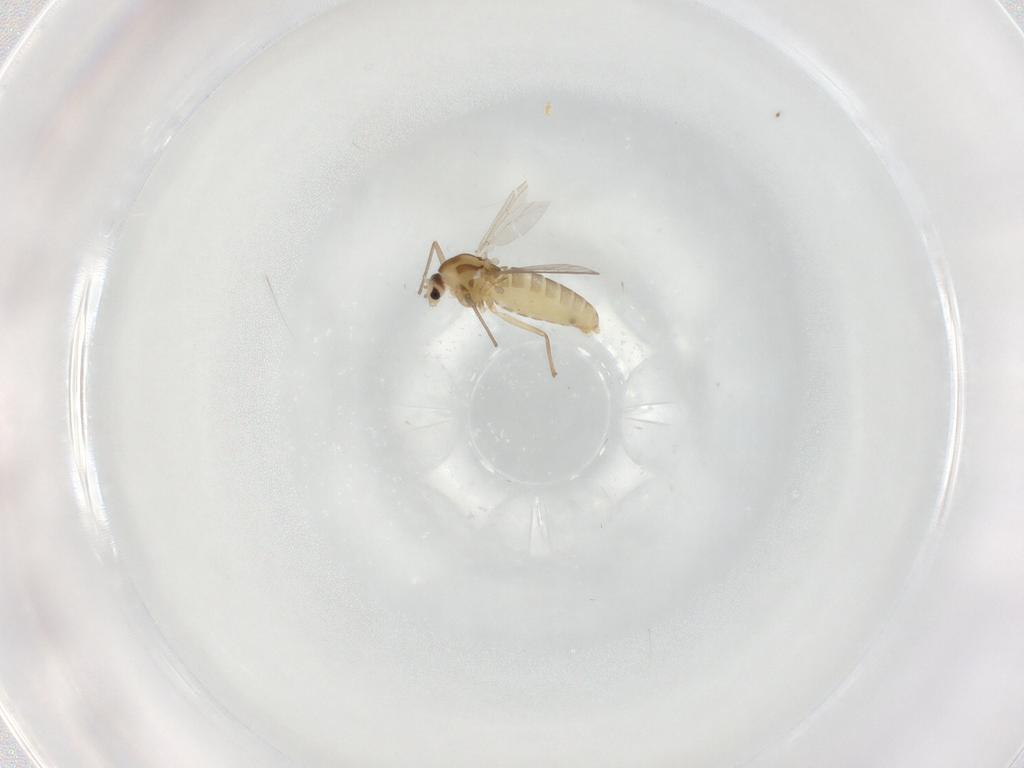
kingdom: Animalia
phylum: Arthropoda
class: Insecta
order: Diptera
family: Chironomidae
